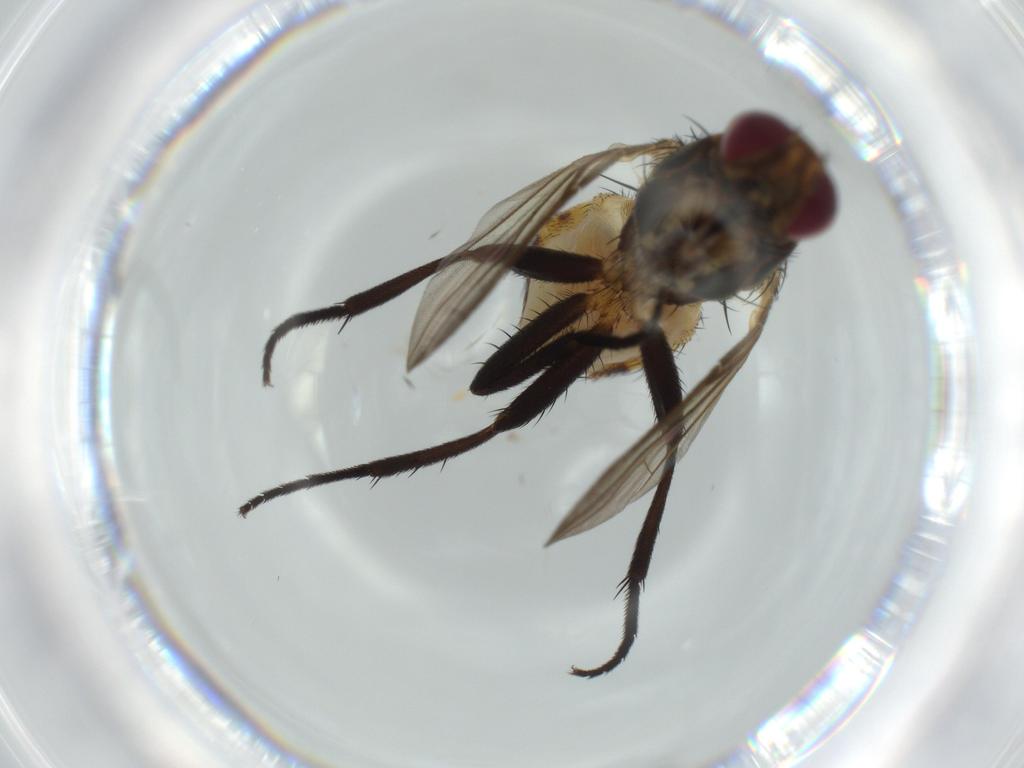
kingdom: Animalia
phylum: Arthropoda
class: Insecta
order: Diptera
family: Anthomyiidae
